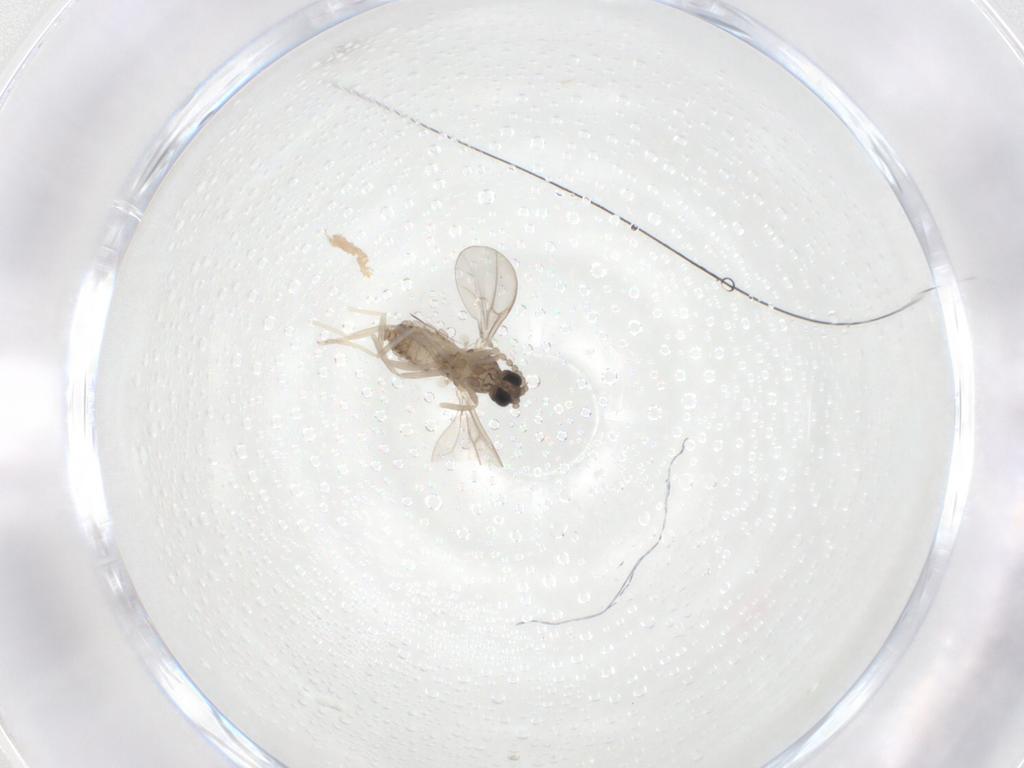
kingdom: Animalia
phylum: Arthropoda
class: Insecta
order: Diptera
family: Cecidomyiidae
